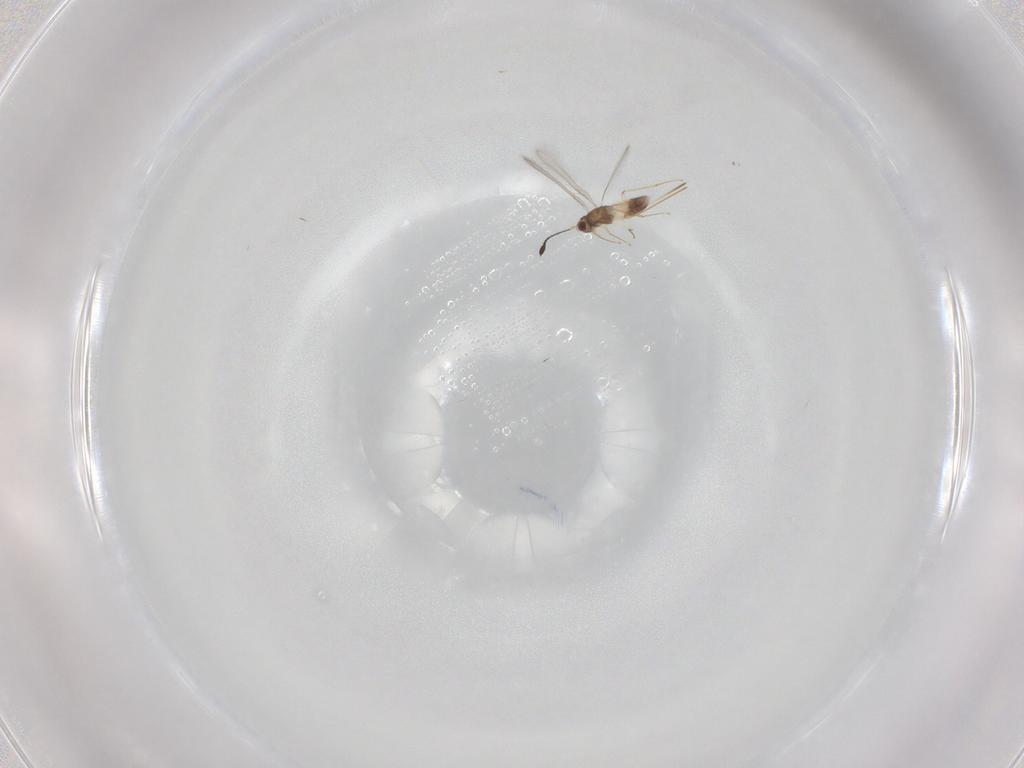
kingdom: Animalia
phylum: Arthropoda
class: Insecta
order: Hymenoptera
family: Mymaridae
